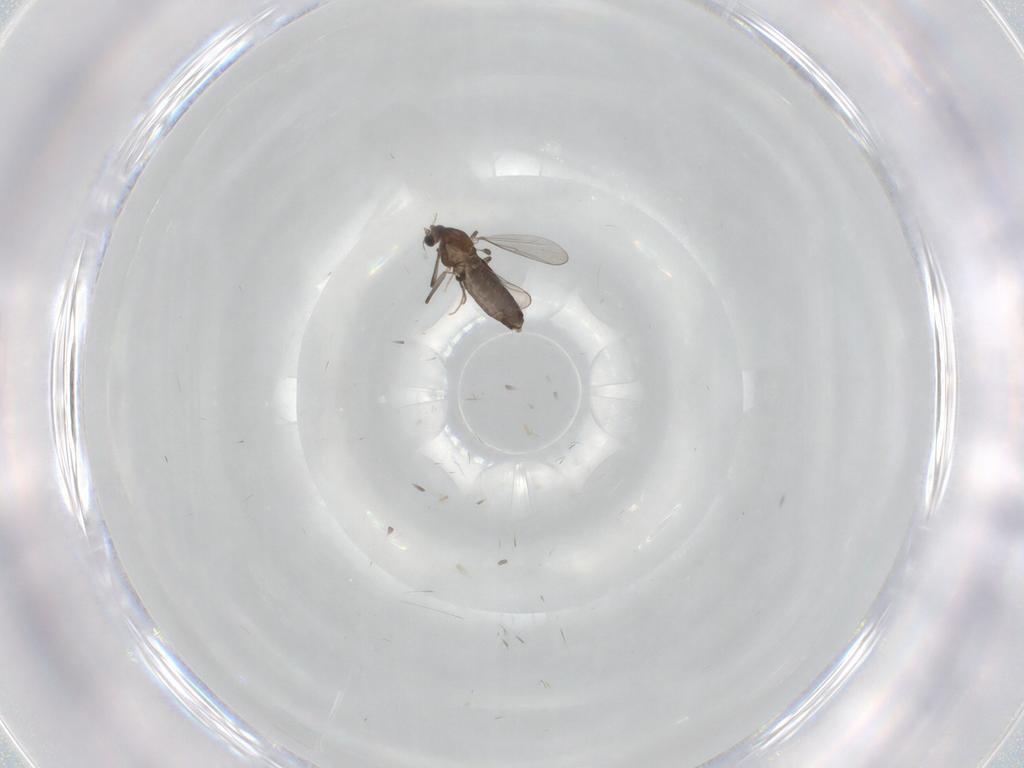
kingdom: Animalia
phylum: Arthropoda
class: Insecta
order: Diptera
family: Chironomidae
